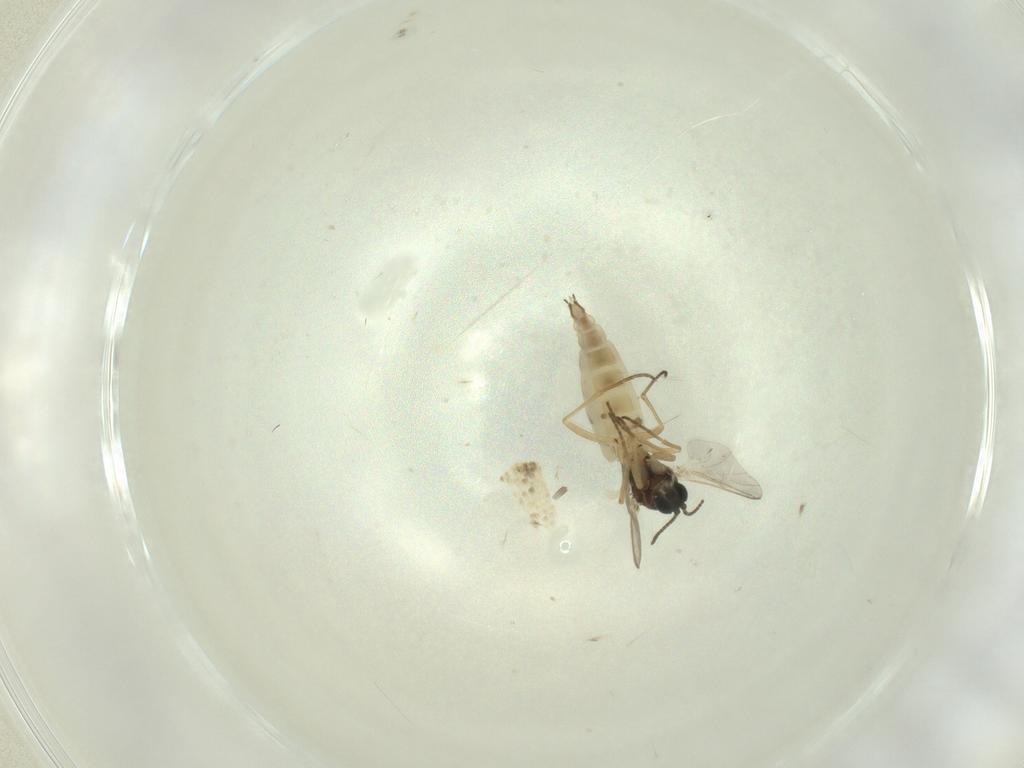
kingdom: Animalia
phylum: Arthropoda
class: Insecta
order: Diptera
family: Sciaridae
